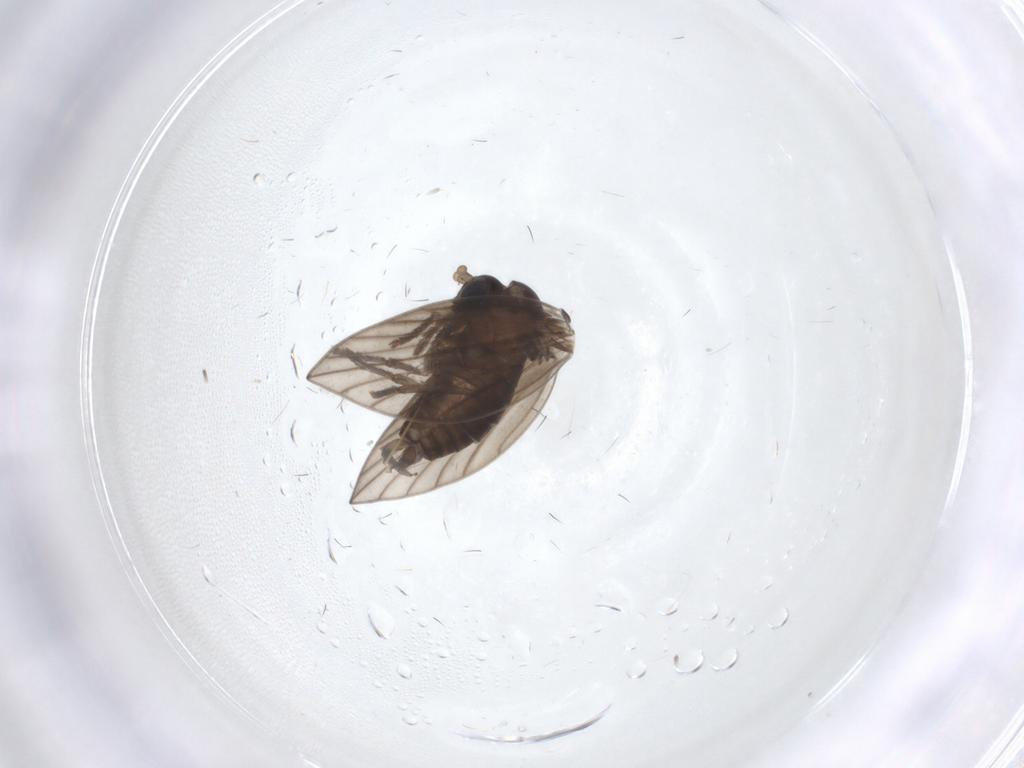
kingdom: Animalia
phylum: Arthropoda
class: Insecta
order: Diptera
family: Psychodidae
